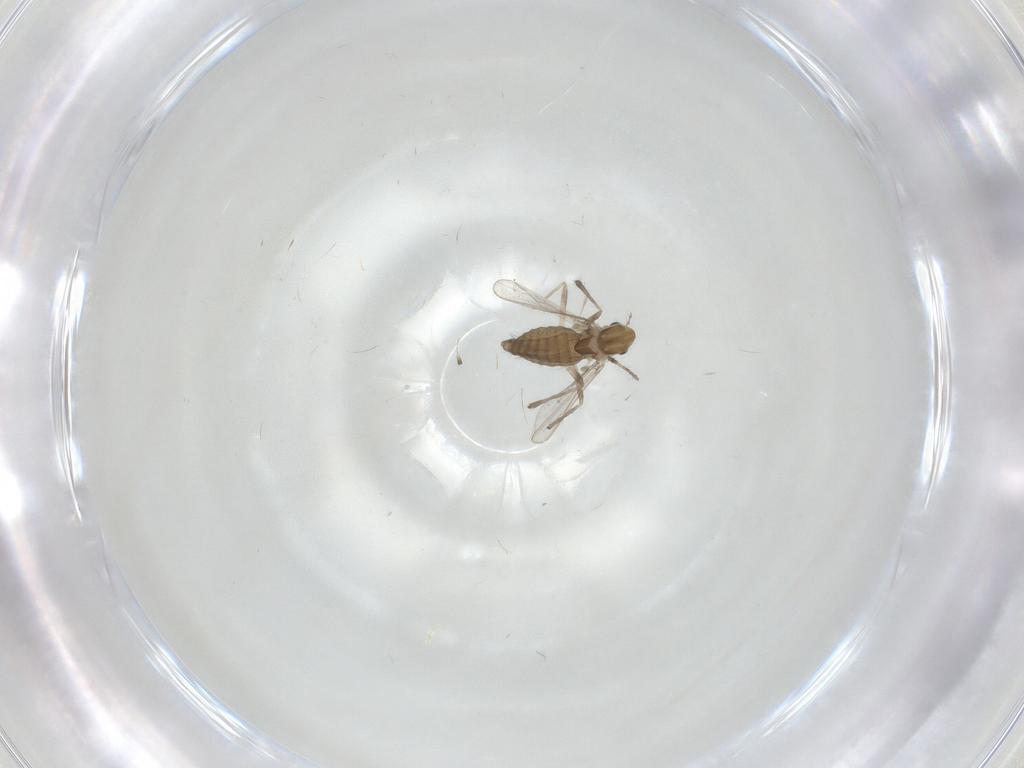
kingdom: Animalia
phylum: Arthropoda
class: Insecta
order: Diptera
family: Chironomidae
